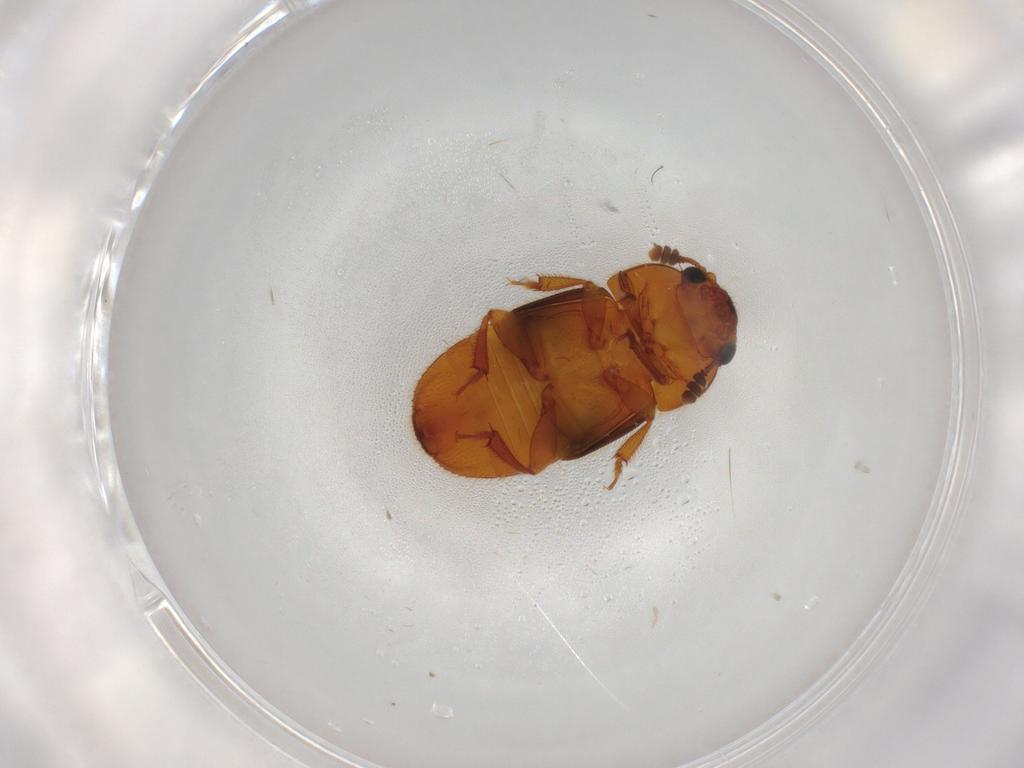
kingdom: Animalia
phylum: Arthropoda
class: Insecta
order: Coleoptera
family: Nitidulidae
